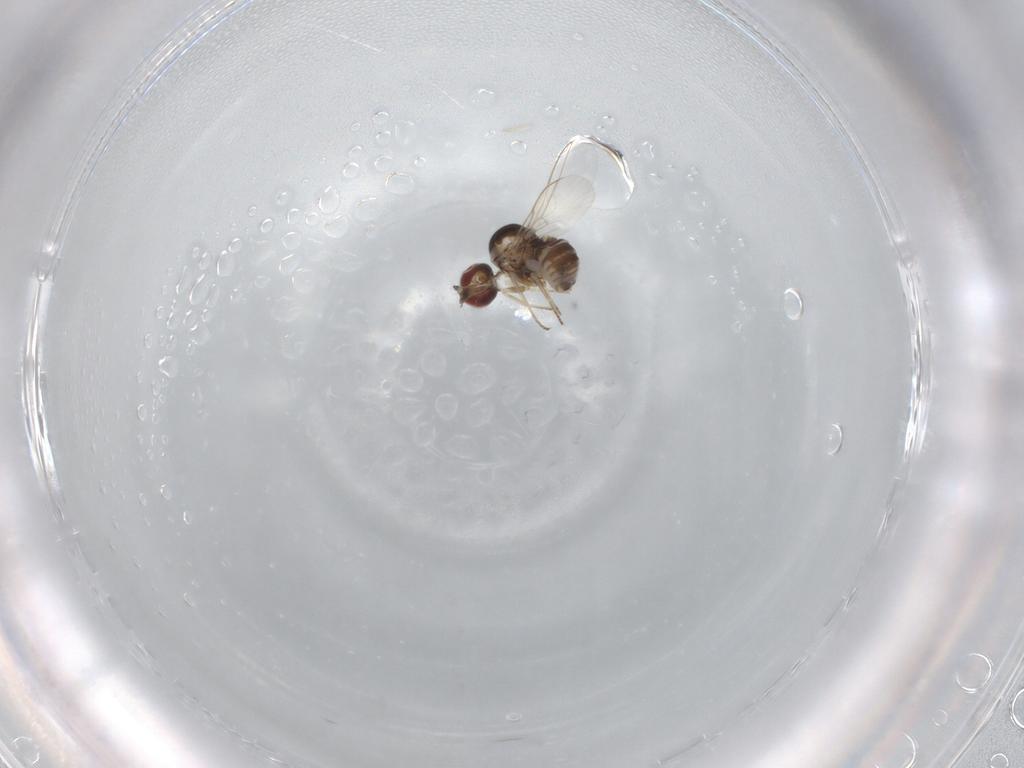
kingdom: Animalia
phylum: Arthropoda
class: Insecta
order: Diptera
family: Bombyliidae
